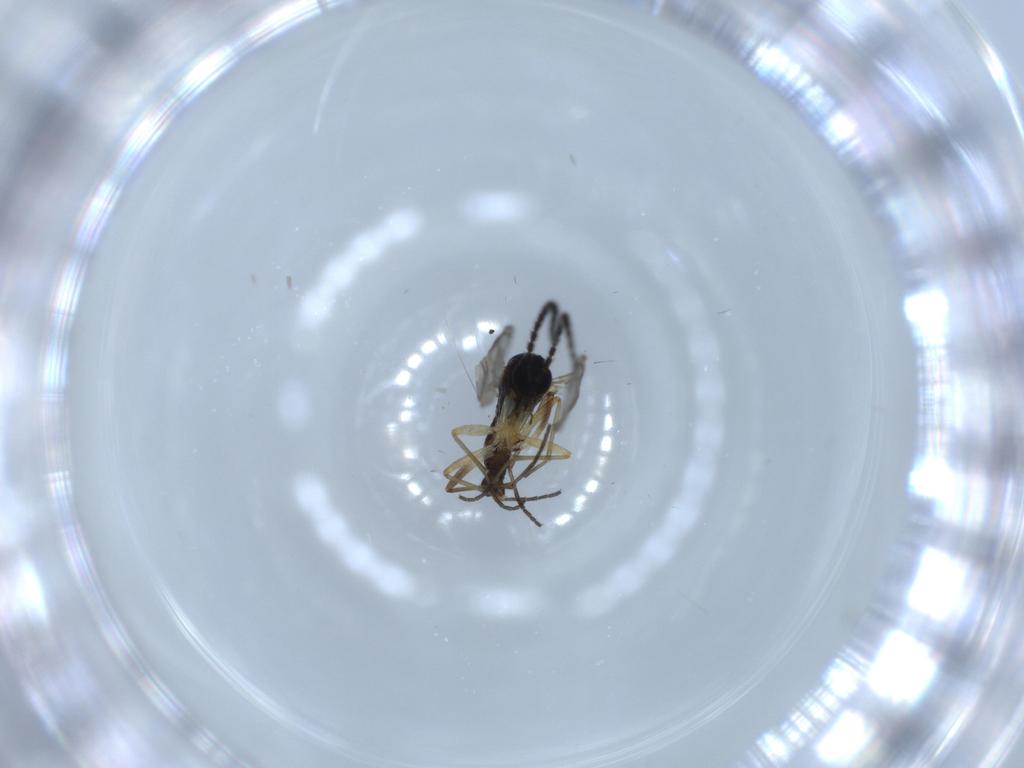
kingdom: Animalia
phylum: Arthropoda
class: Insecta
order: Diptera
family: Sciaridae
